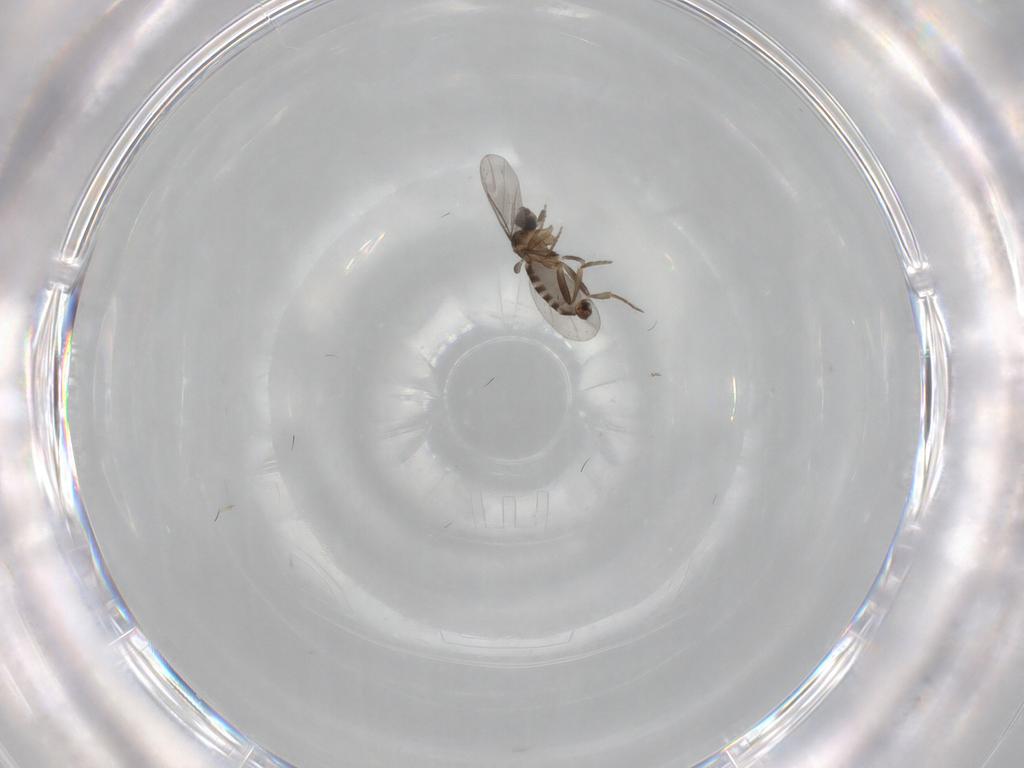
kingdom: Animalia
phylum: Arthropoda
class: Insecta
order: Diptera
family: Dolichopodidae
